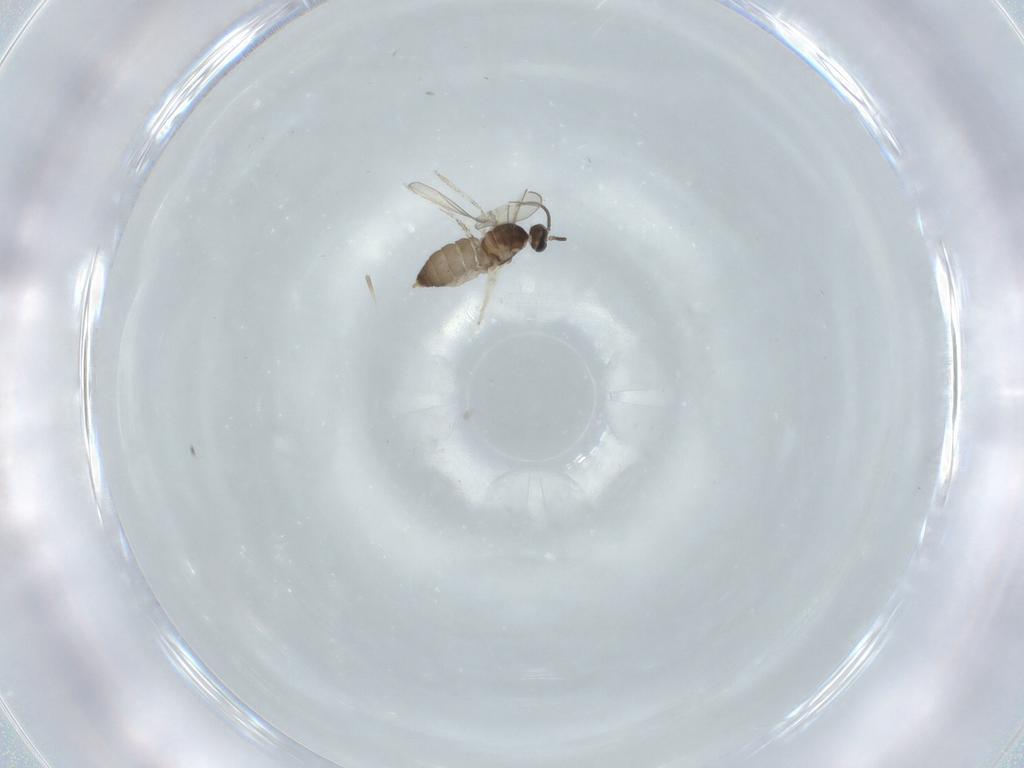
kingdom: Animalia
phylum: Arthropoda
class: Insecta
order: Diptera
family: Cecidomyiidae
